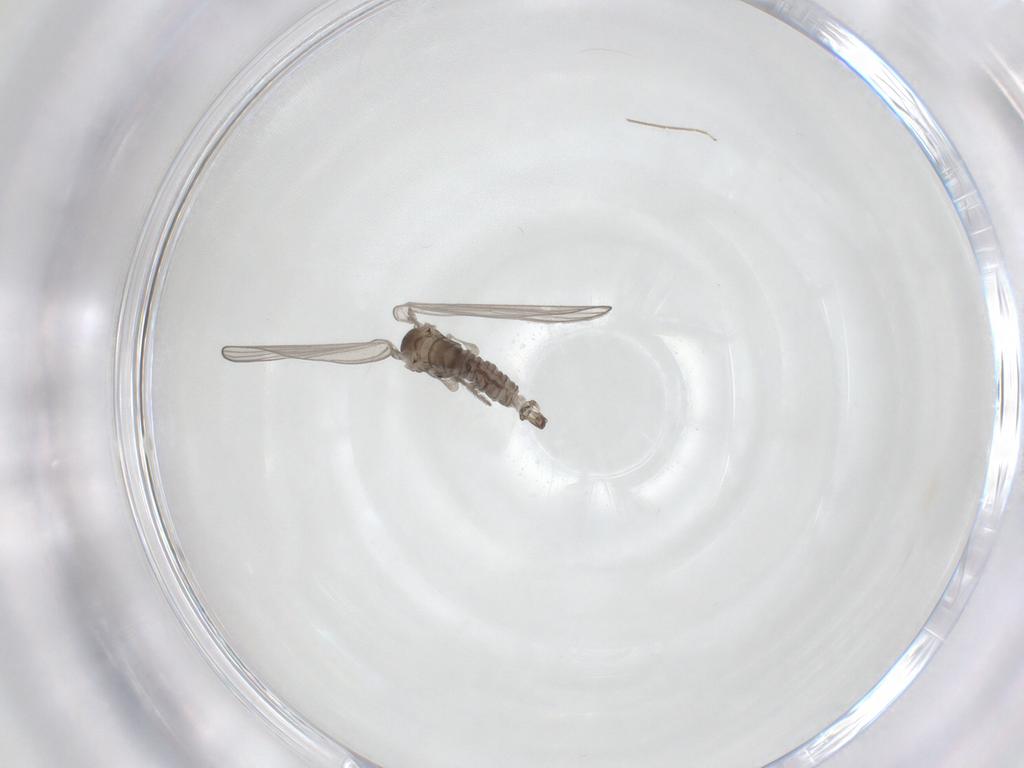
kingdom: Animalia
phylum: Arthropoda
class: Insecta
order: Diptera
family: Psychodidae
